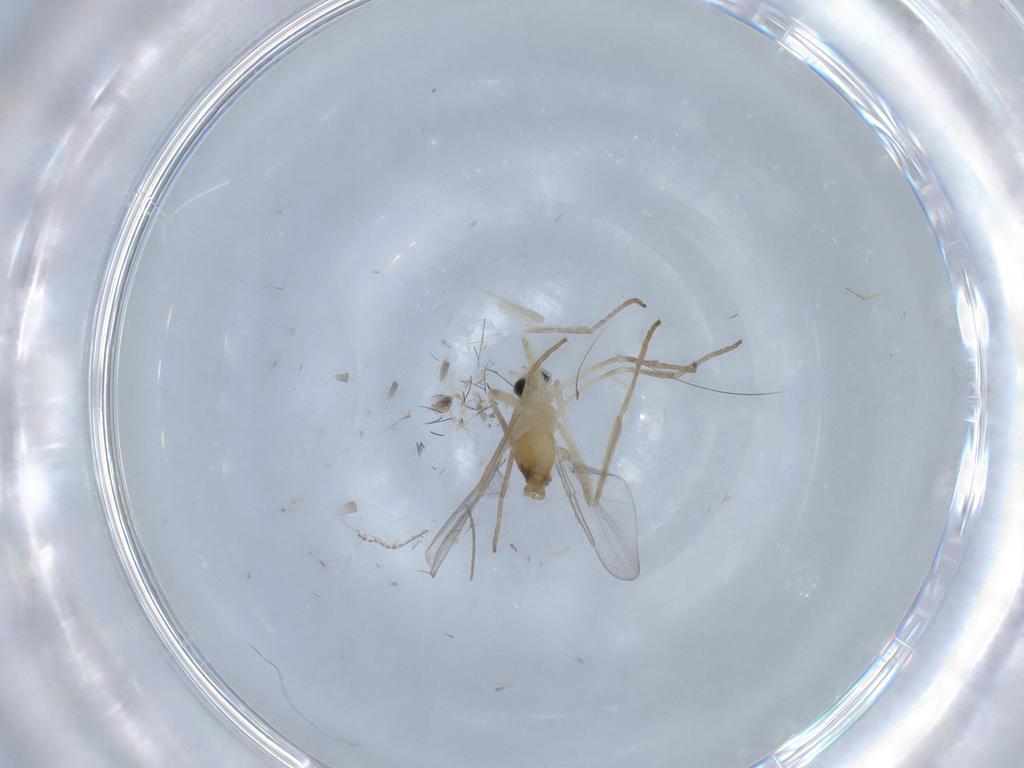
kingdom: Animalia
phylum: Arthropoda
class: Insecta
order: Diptera
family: Cecidomyiidae
